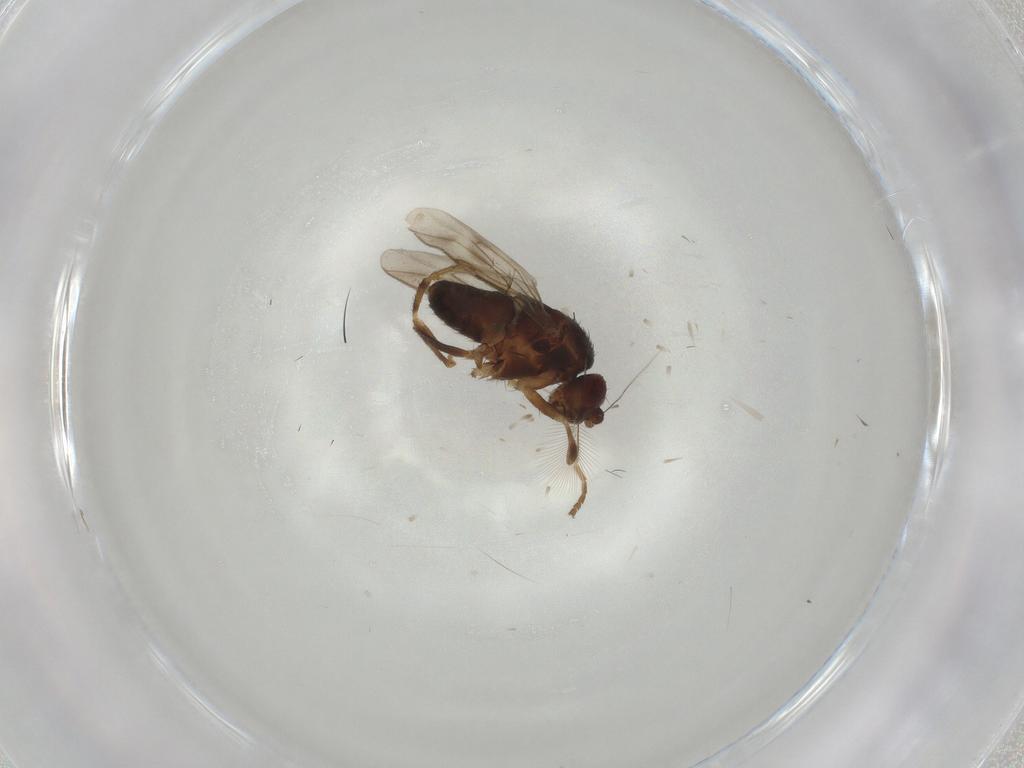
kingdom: Animalia
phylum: Arthropoda
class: Insecta
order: Diptera
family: Sphaeroceridae
